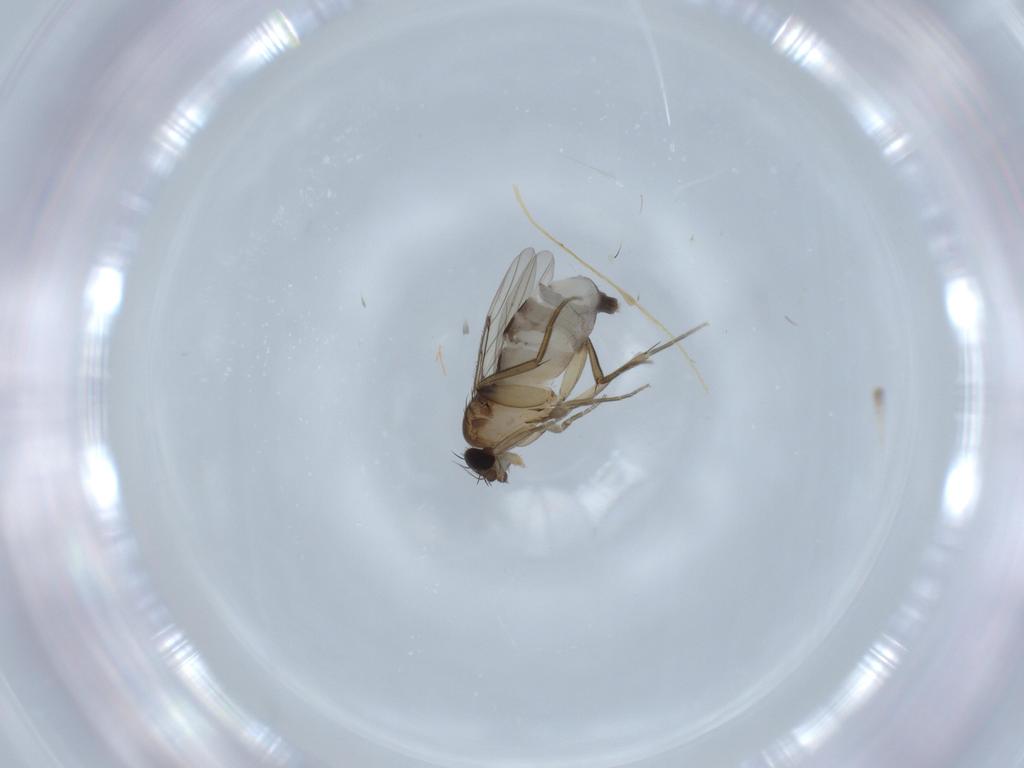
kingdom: Animalia
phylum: Arthropoda
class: Insecta
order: Diptera
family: Phoridae
